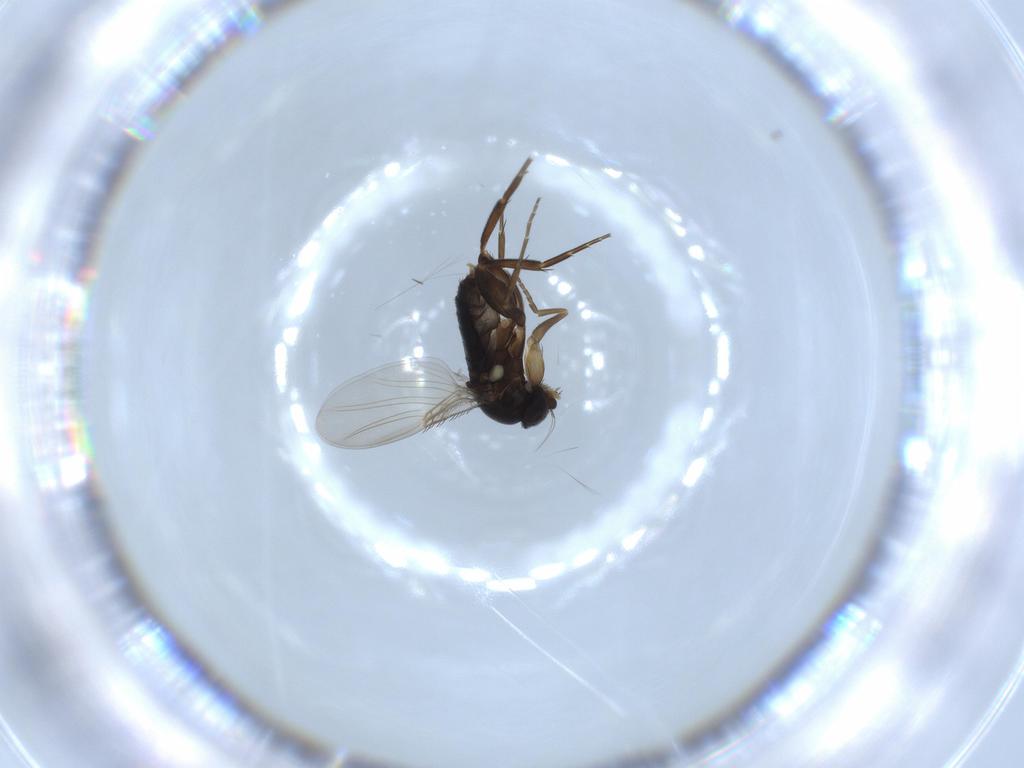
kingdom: Animalia
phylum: Arthropoda
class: Insecta
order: Diptera
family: Phoridae
